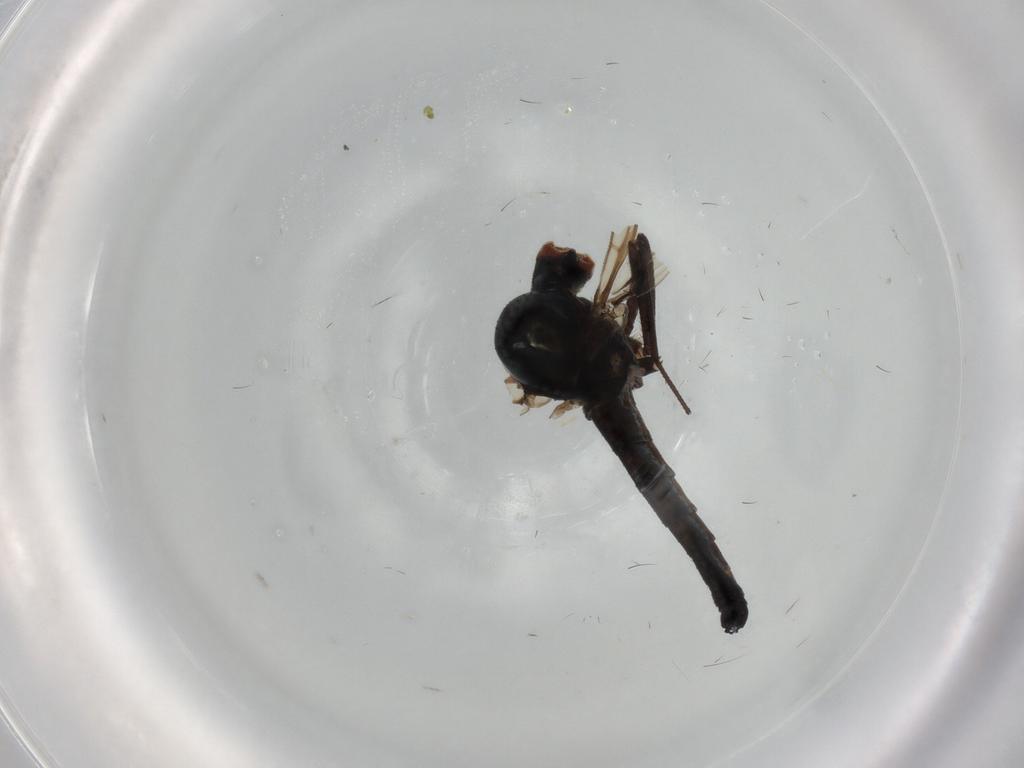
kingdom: Animalia
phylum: Arthropoda
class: Insecta
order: Diptera
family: Hybotidae
